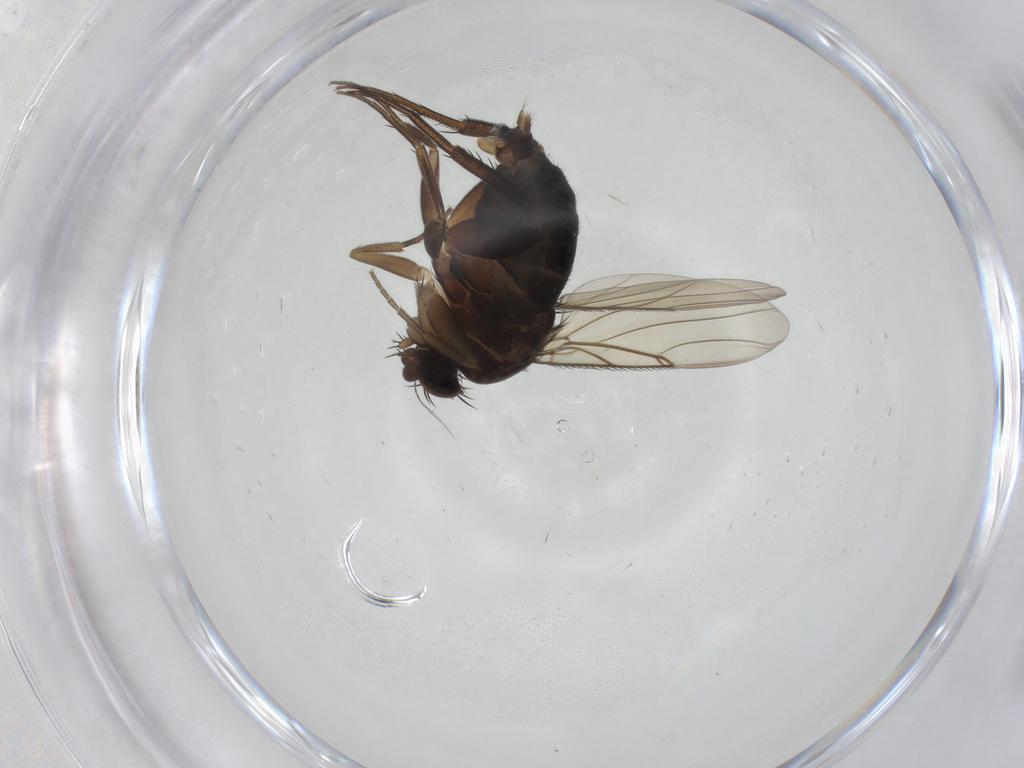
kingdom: Animalia
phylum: Arthropoda
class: Insecta
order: Diptera
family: Phoridae
